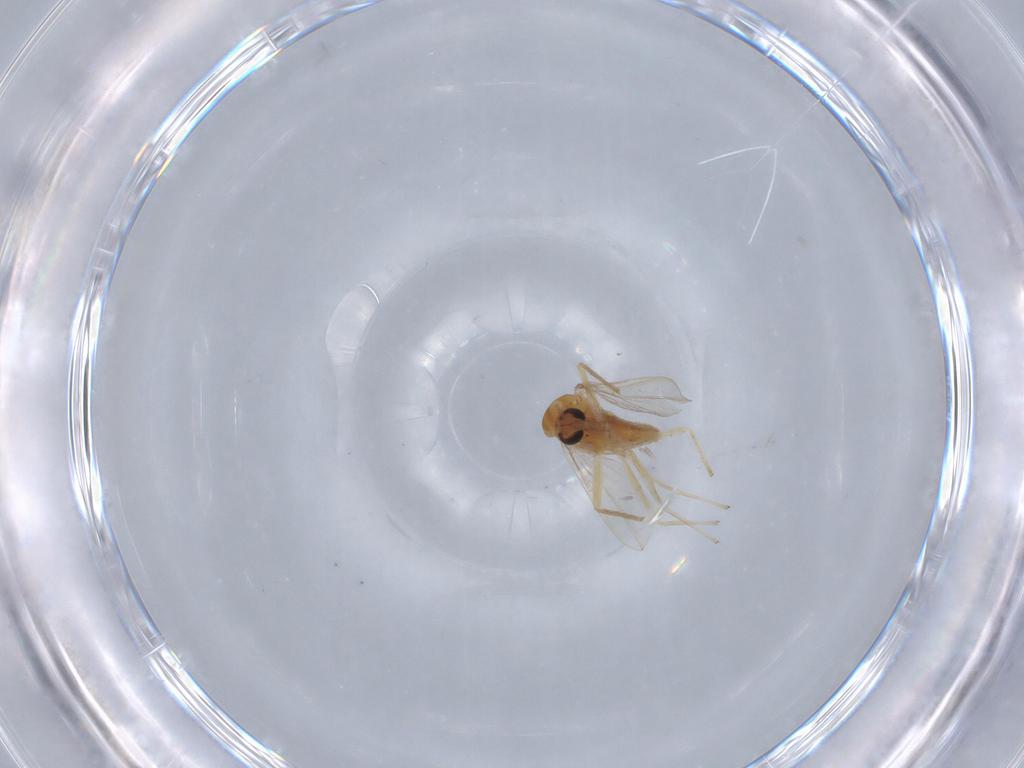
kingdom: Animalia
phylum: Arthropoda
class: Insecta
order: Diptera
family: Chironomidae
